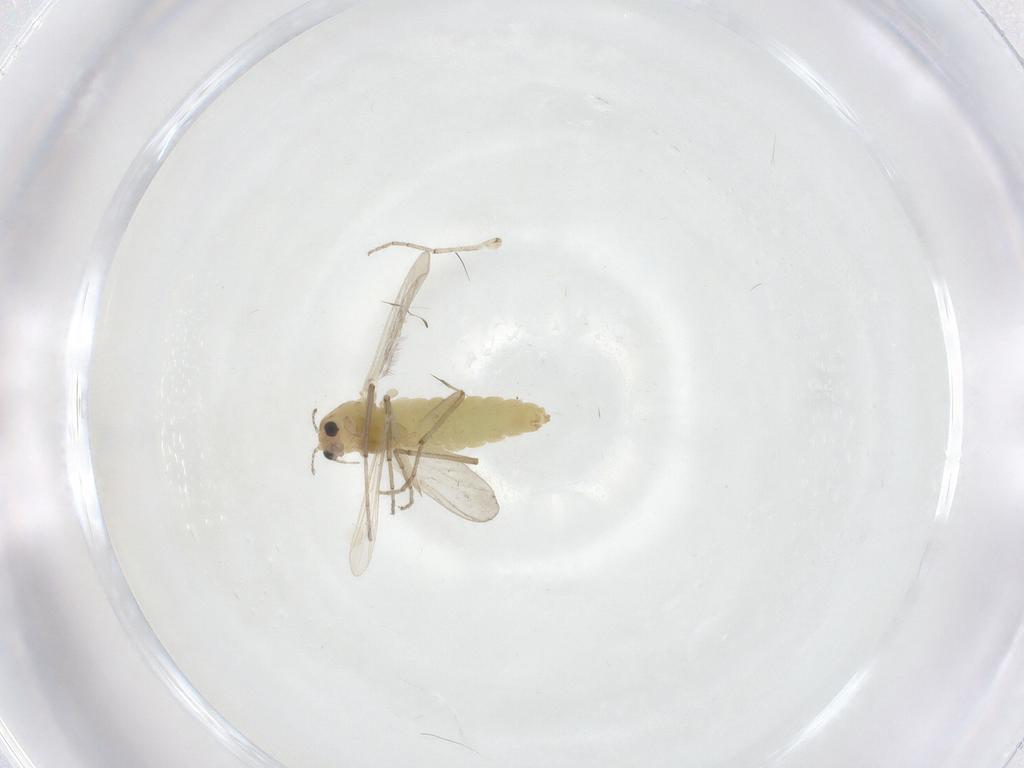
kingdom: Animalia
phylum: Arthropoda
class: Insecta
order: Diptera
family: Chironomidae
